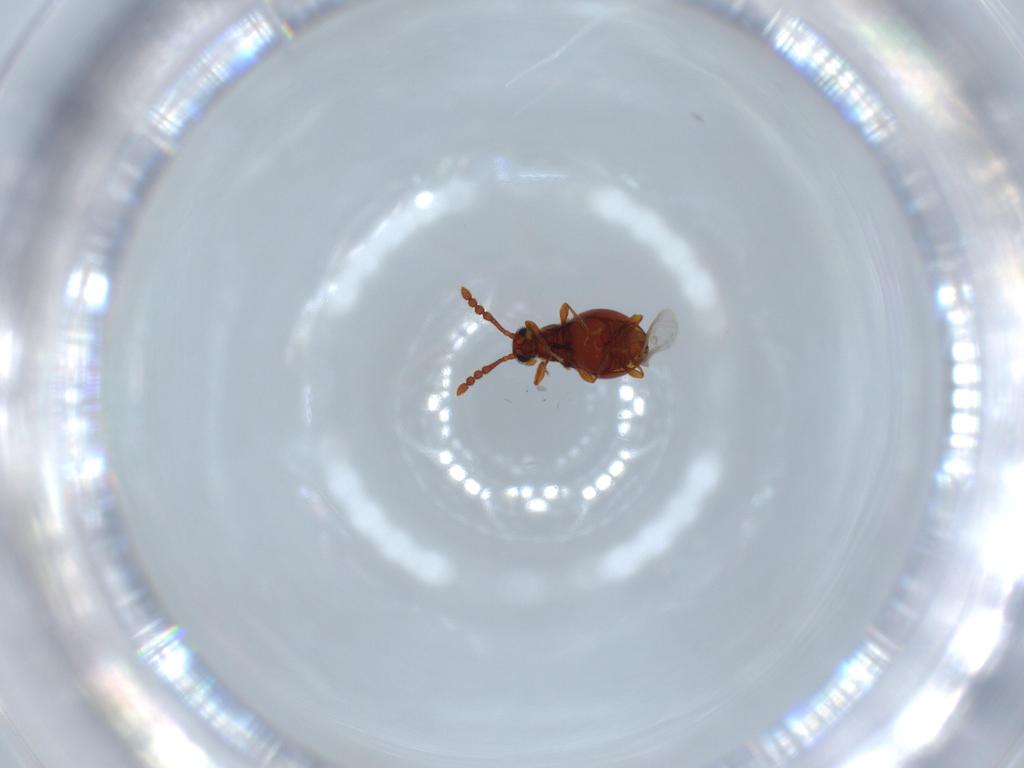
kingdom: Animalia
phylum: Arthropoda
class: Insecta
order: Coleoptera
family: Staphylinidae
